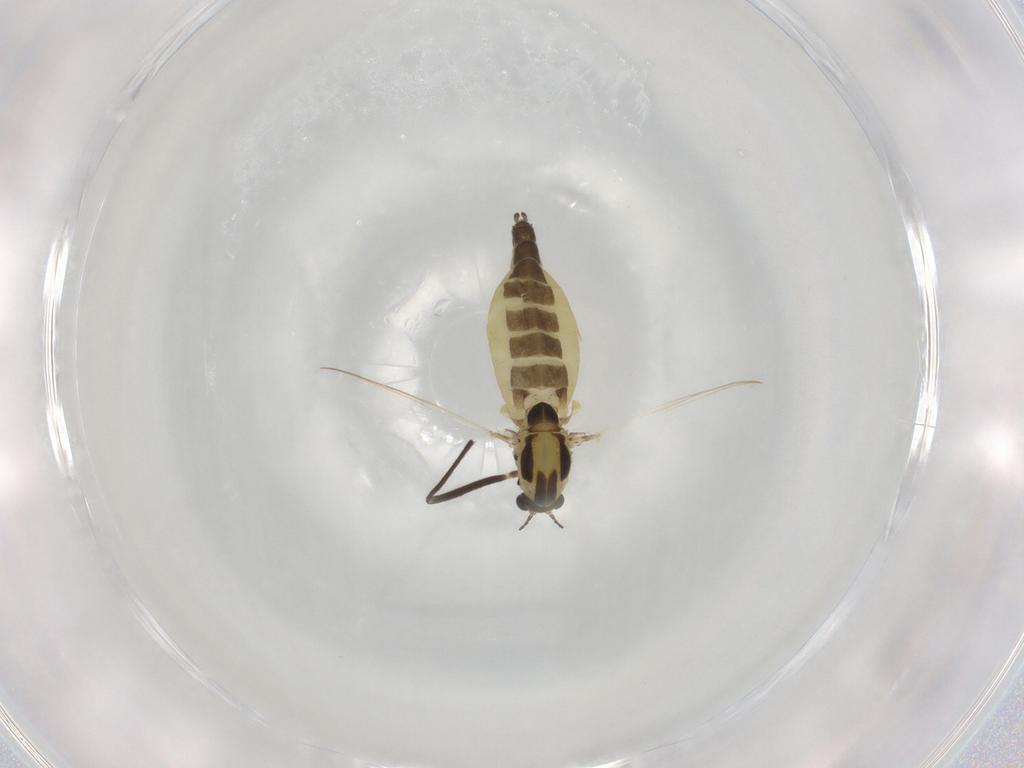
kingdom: Animalia
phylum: Arthropoda
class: Insecta
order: Diptera
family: Chironomidae
